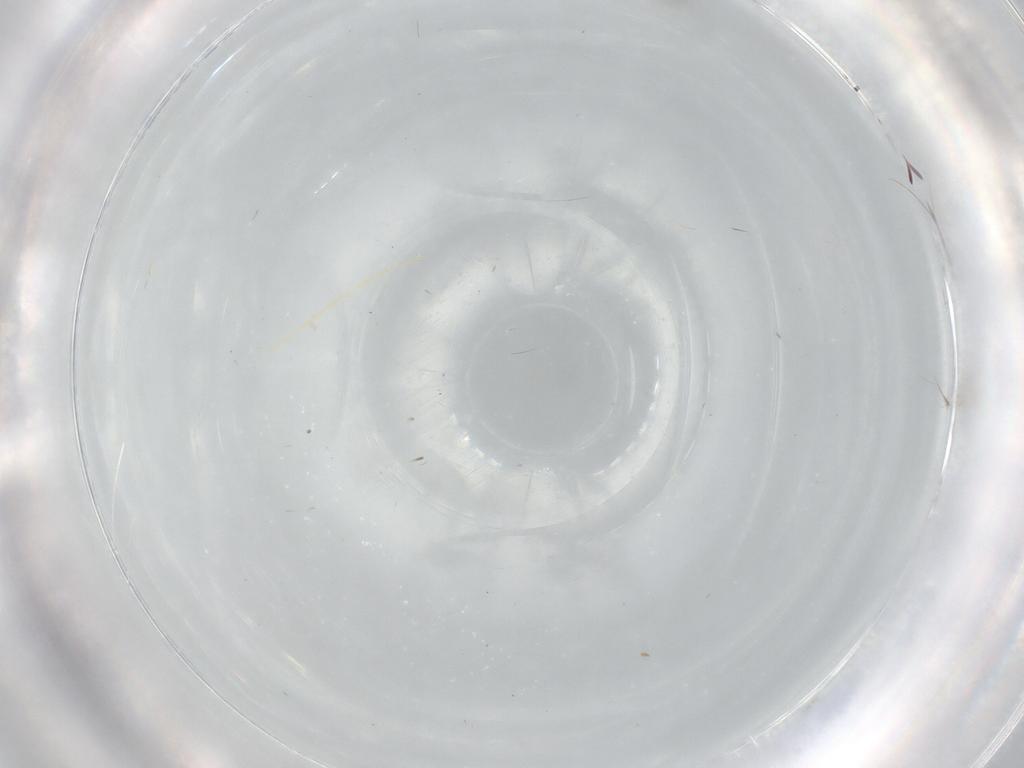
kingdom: Animalia
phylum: Arthropoda
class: Insecta
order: Diptera
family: Cecidomyiidae
